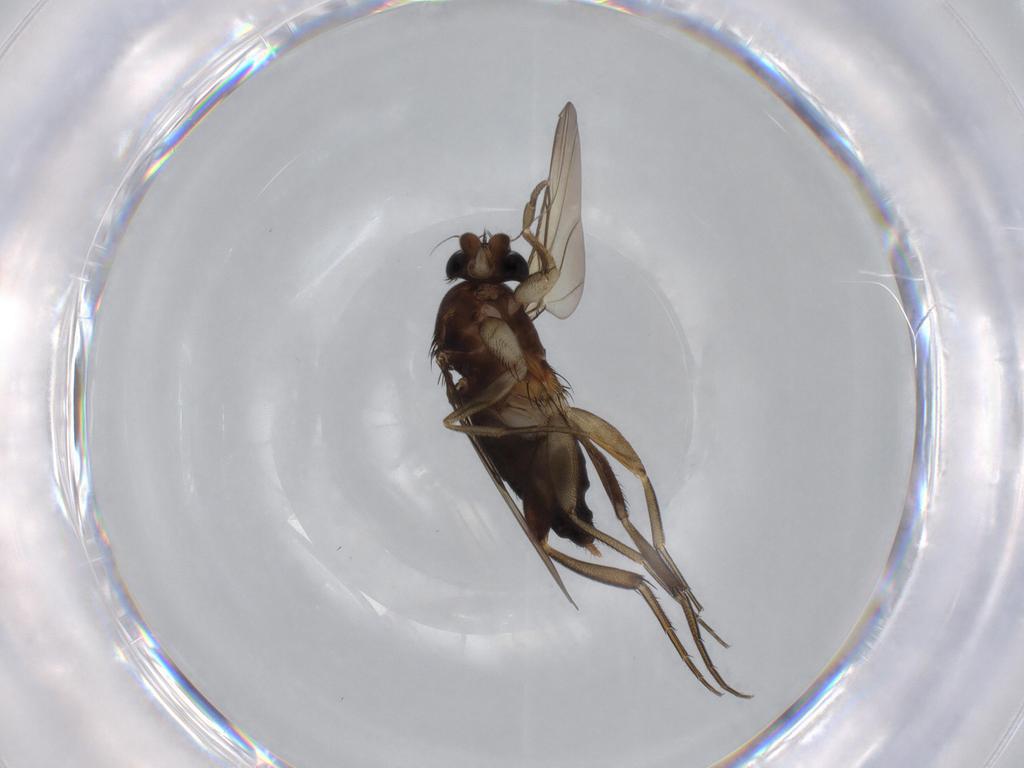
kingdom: Animalia
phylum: Arthropoda
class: Insecta
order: Diptera
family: Phoridae
